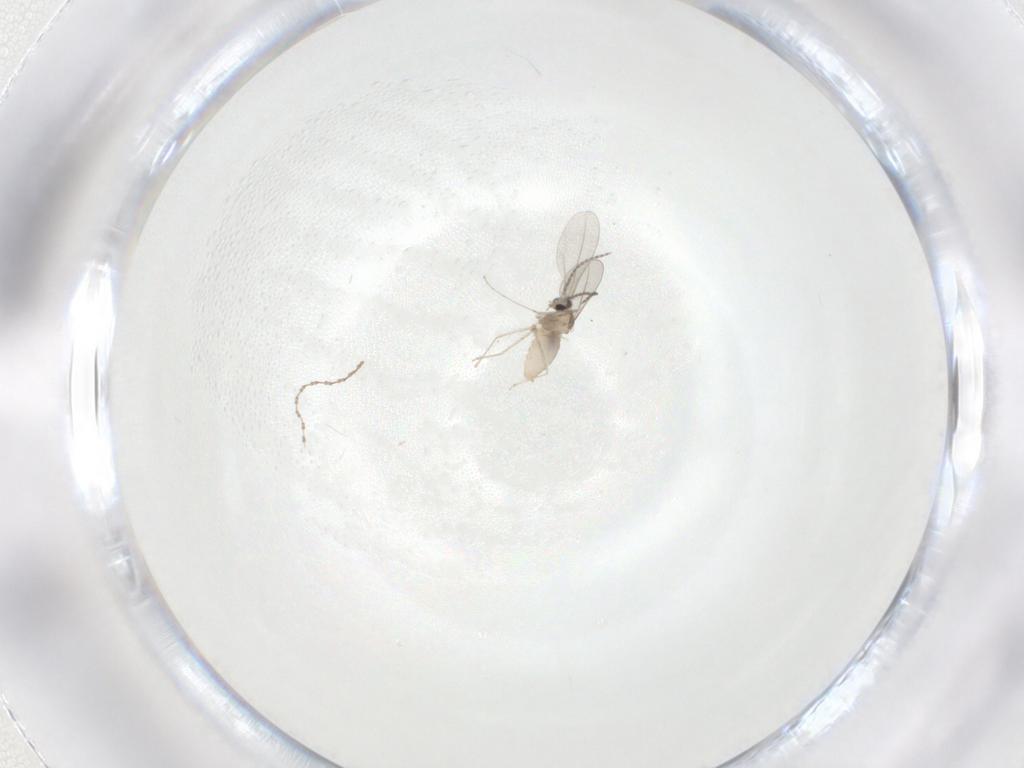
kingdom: Animalia
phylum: Arthropoda
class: Insecta
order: Diptera
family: Cecidomyiidae
